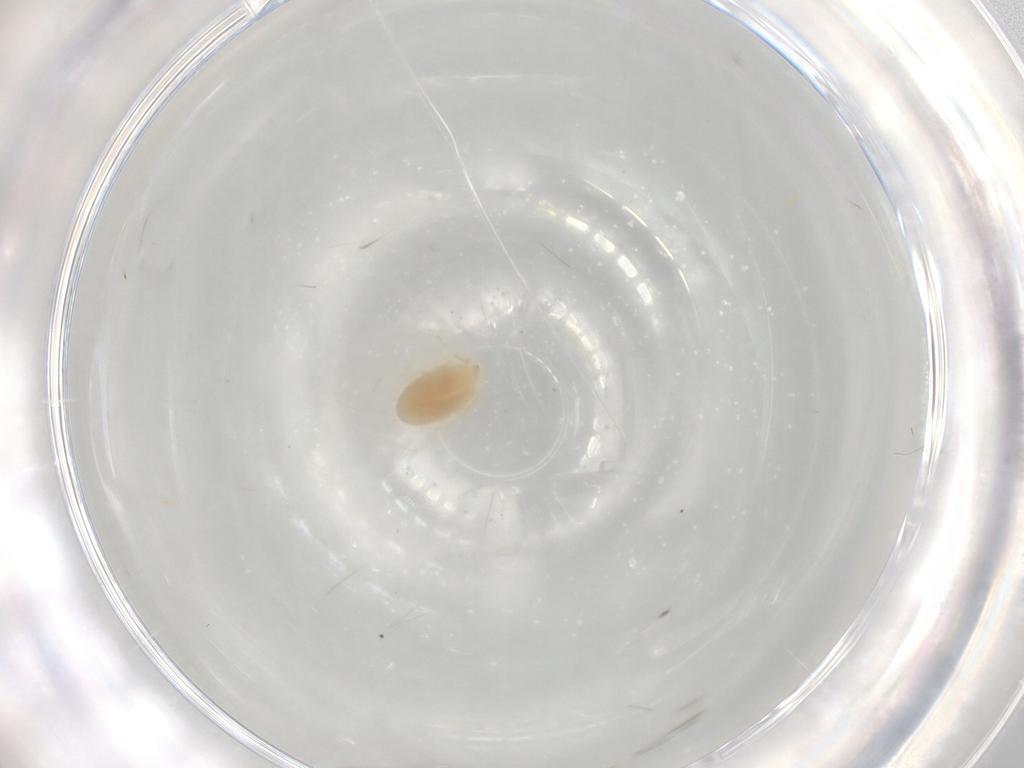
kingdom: Animalia
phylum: Arthropoda
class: Arachnida
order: Trombidiformes
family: Erythraeidae
